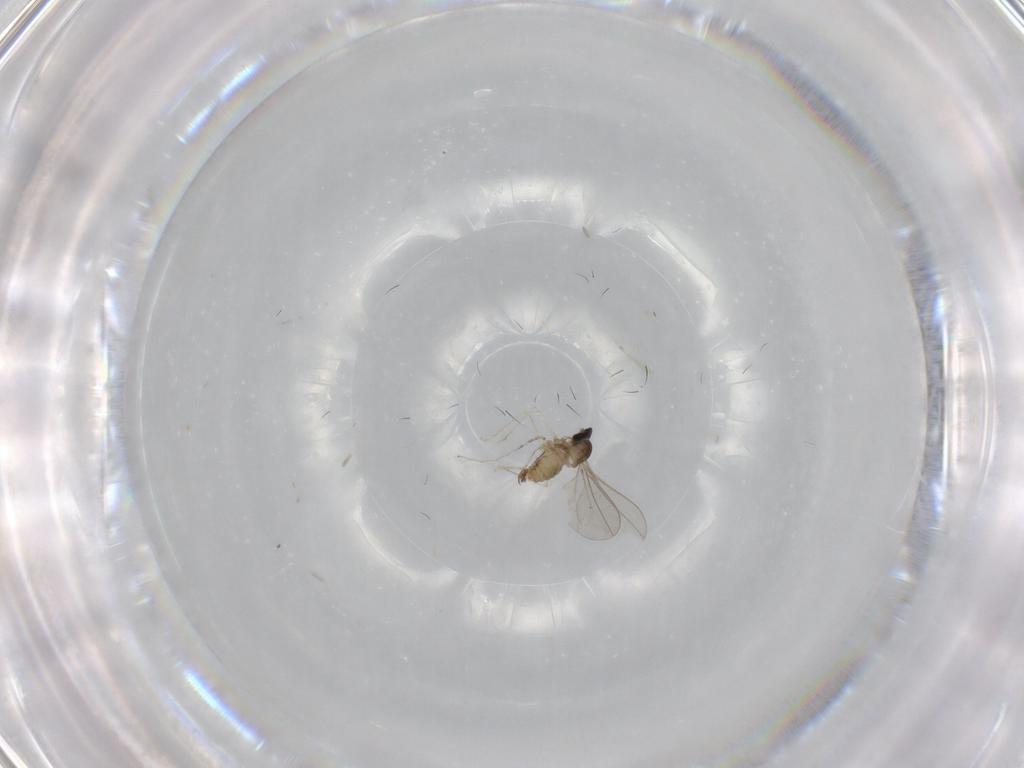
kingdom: Animalia
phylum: Arthropoda
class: Insecta
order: Diptera
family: Cecidomyiidae
